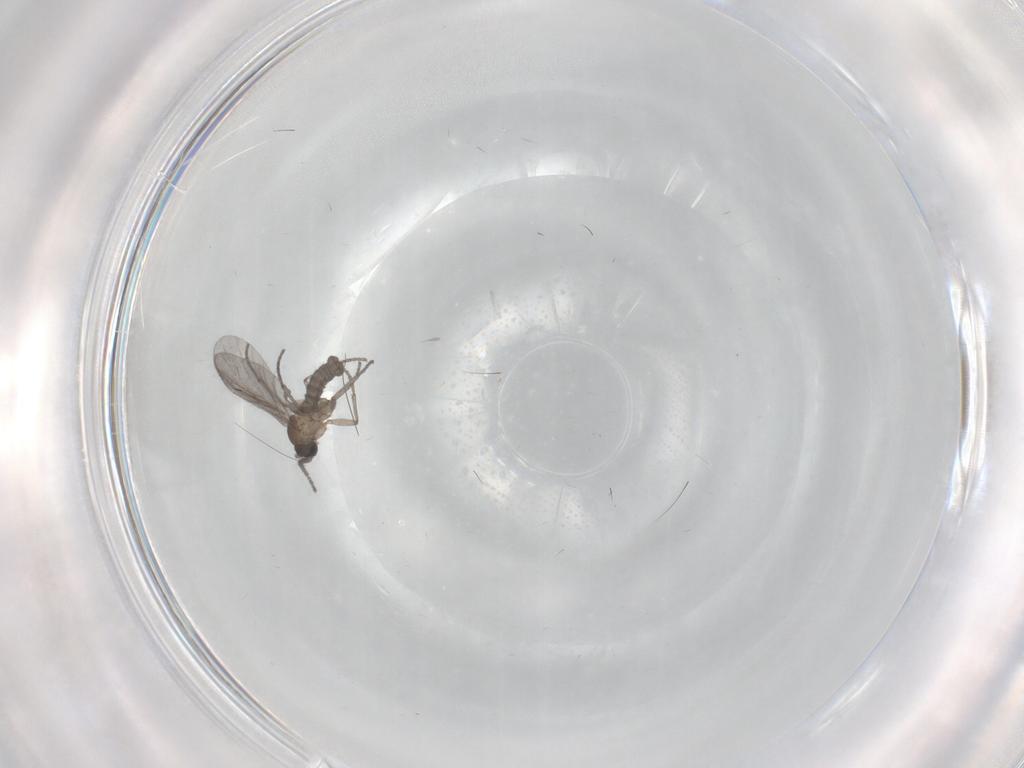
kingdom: Animalia
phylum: Arthropoda
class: Insecta
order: Diptera
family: Sciaridae
